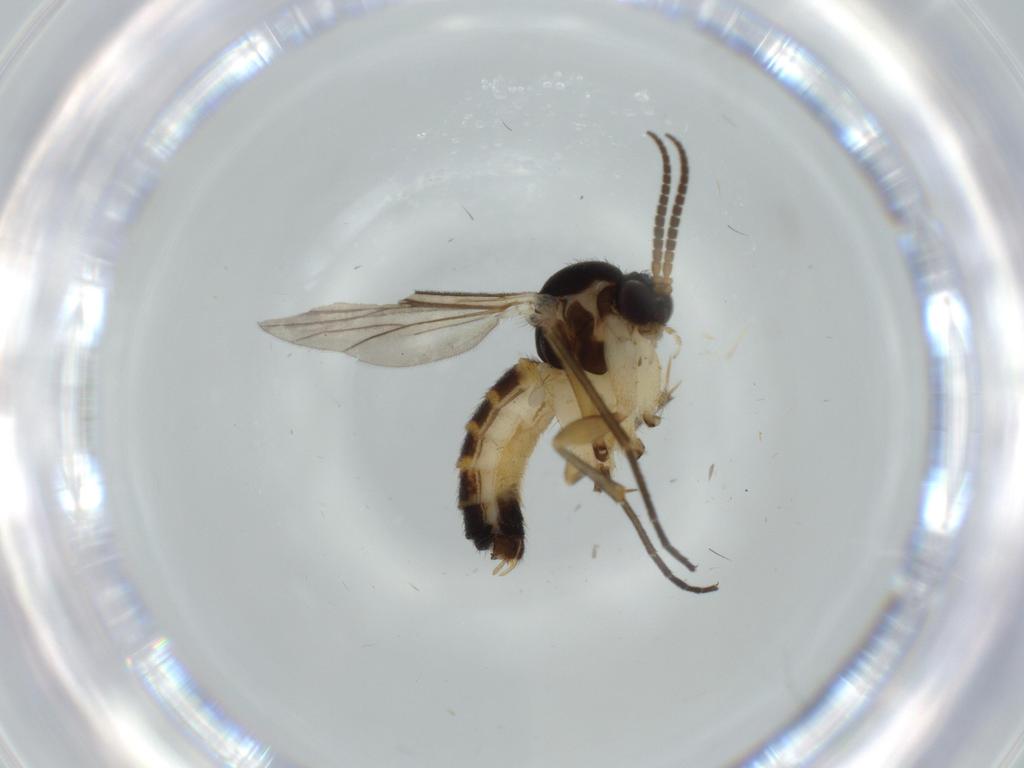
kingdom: Animalia
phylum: Arthropoda
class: Insecta
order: Diptera
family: Phoridae
